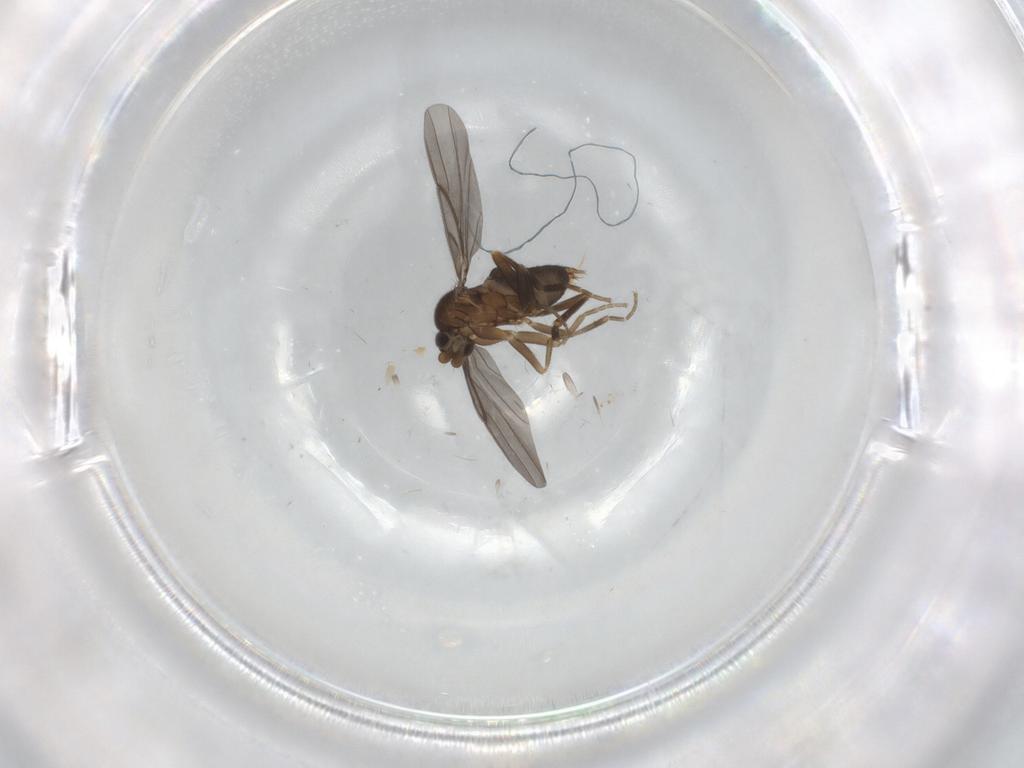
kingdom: Animalia
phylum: Arthropoda
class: Insecta
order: Diptera
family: Phoridae
